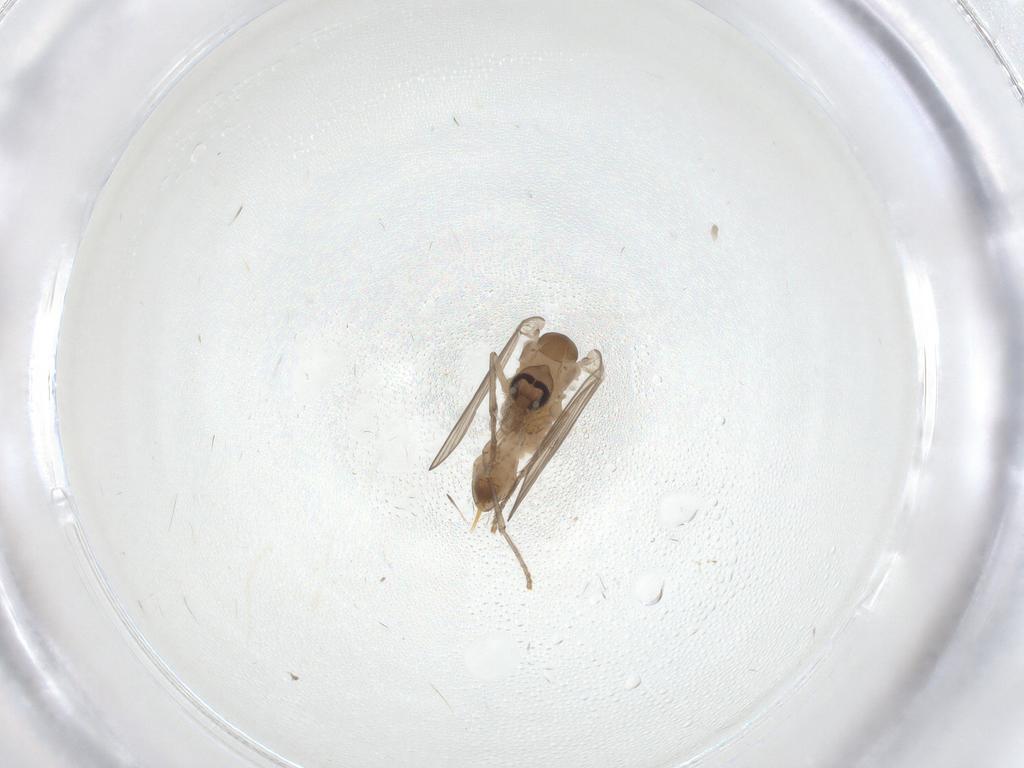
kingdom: Animalia
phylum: Arthropoda
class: Insecta
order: Diptera
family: Psychodidae
